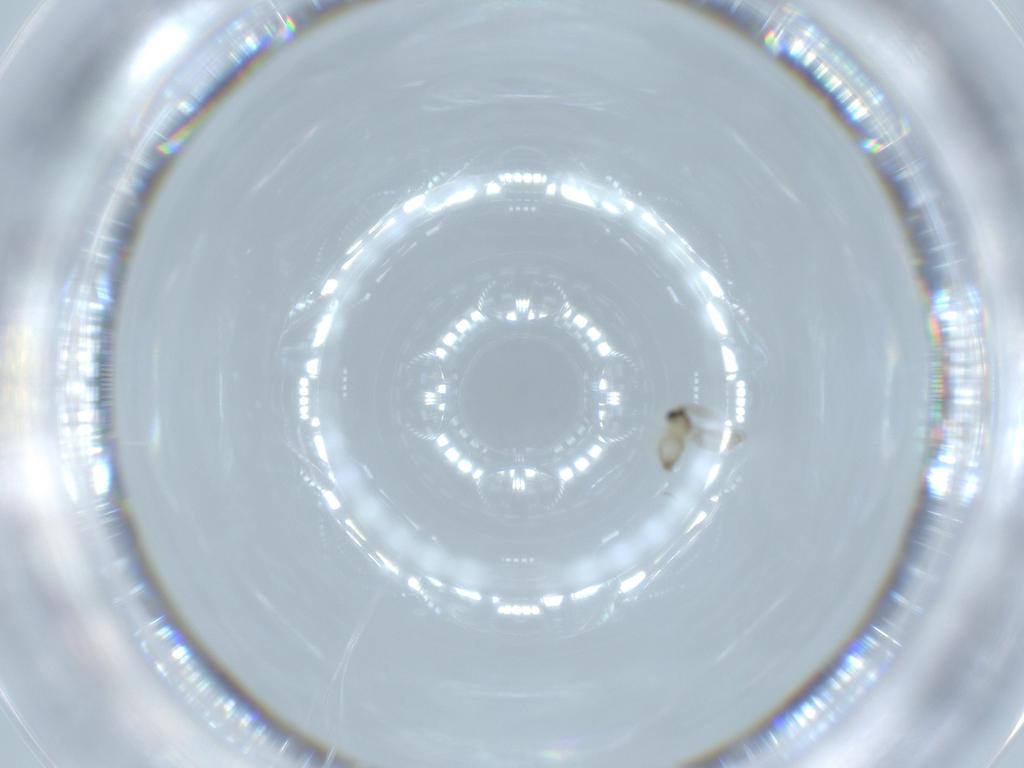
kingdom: Animalia
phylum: Arthropoda
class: Insecta
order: Diptera
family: Cecidomyiidae
